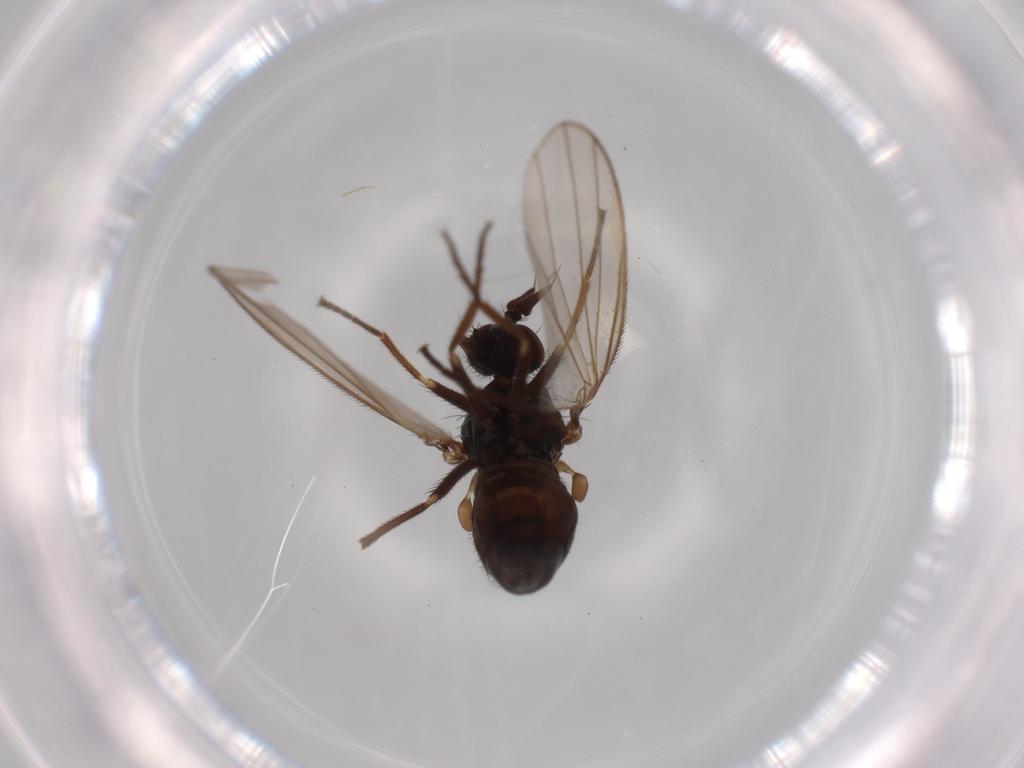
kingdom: Animalia
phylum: Arthropoda
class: Insecta
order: Diptera
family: Dolichopodidae
